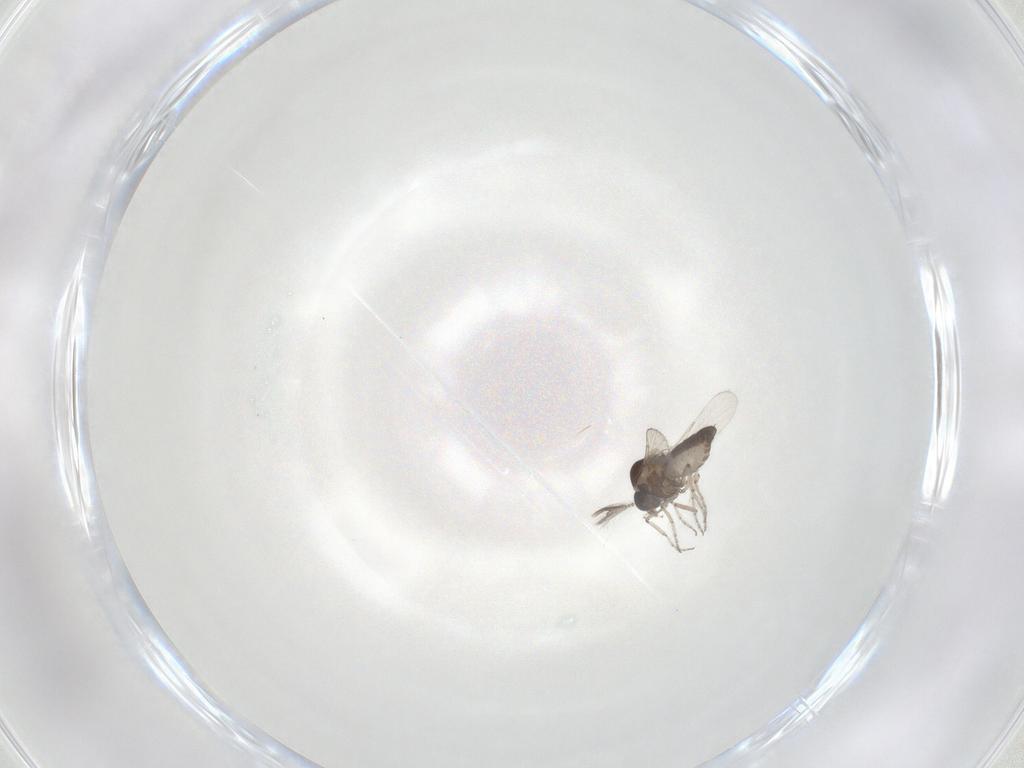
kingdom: Animalia
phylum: Arthropoda
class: Insecta
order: Diptera
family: Ceratopogonidae
